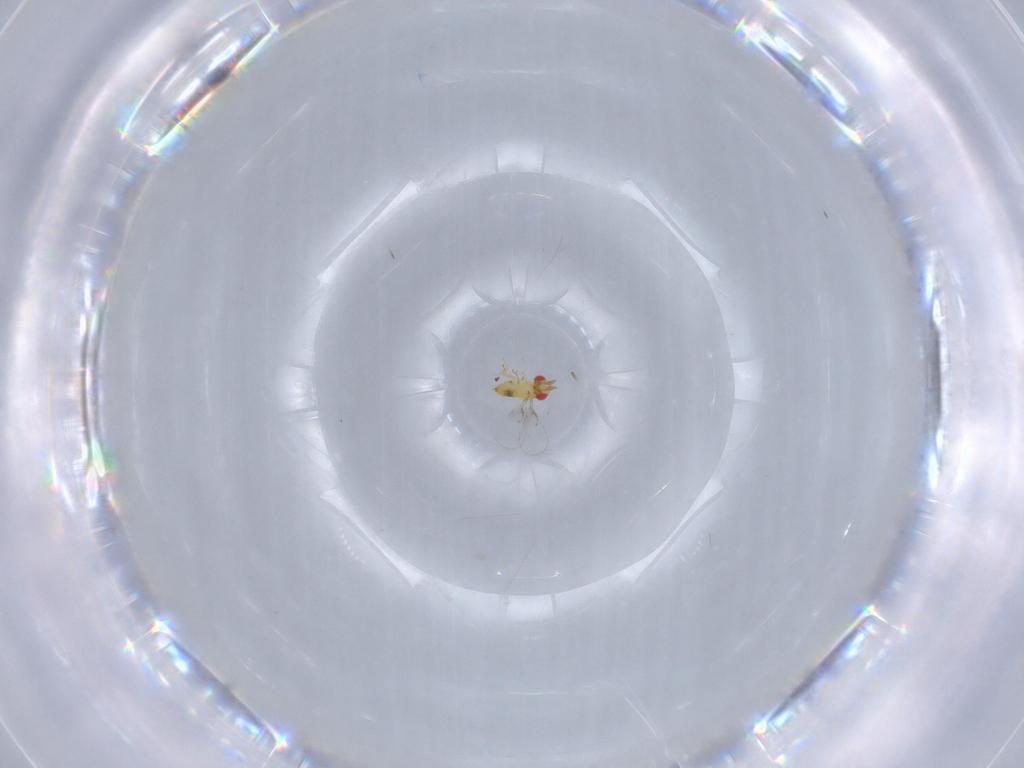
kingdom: Animalia
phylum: Arthropoda
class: Insecta
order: Hymenoptera
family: Trichogrammatidae
